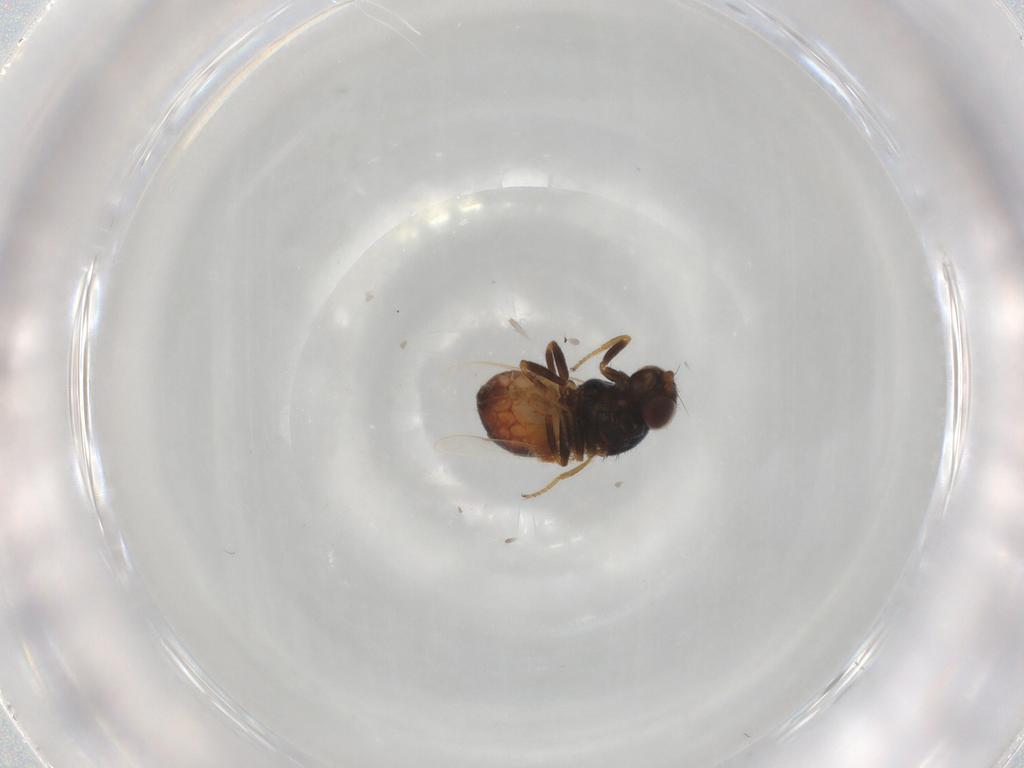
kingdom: Animalia
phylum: Arthropoda
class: Insecta
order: Diptera
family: Chloropidae
